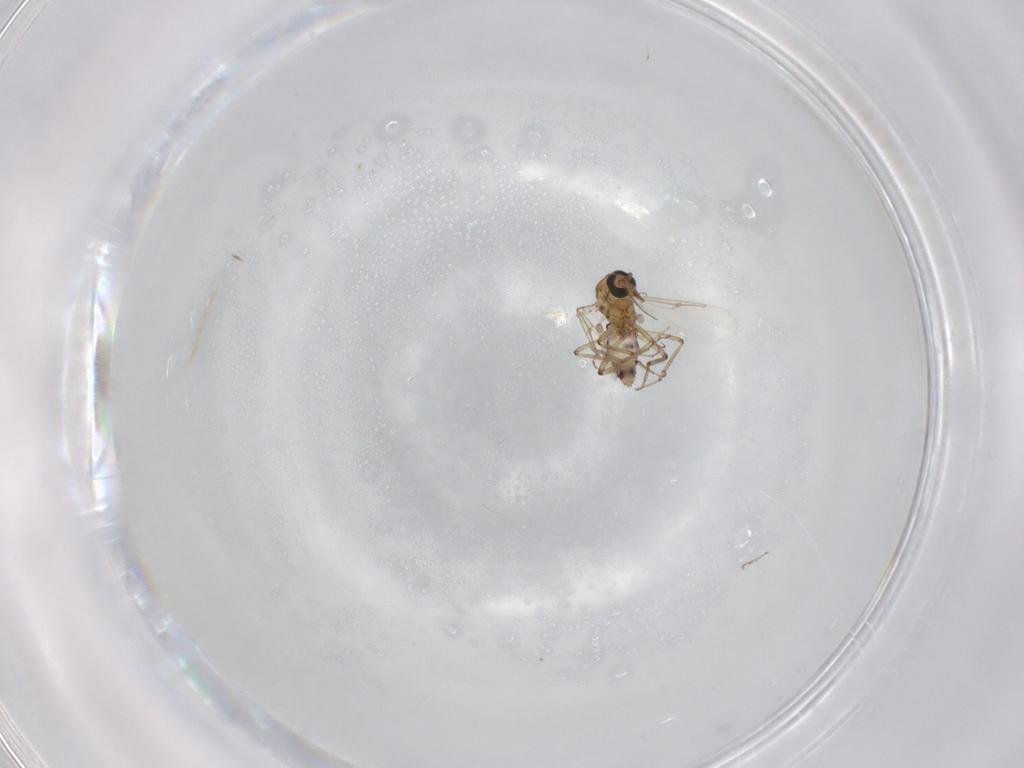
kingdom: Animalia
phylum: Arthropoda
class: Insecta
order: Diptera
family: Ceratopogonidae
